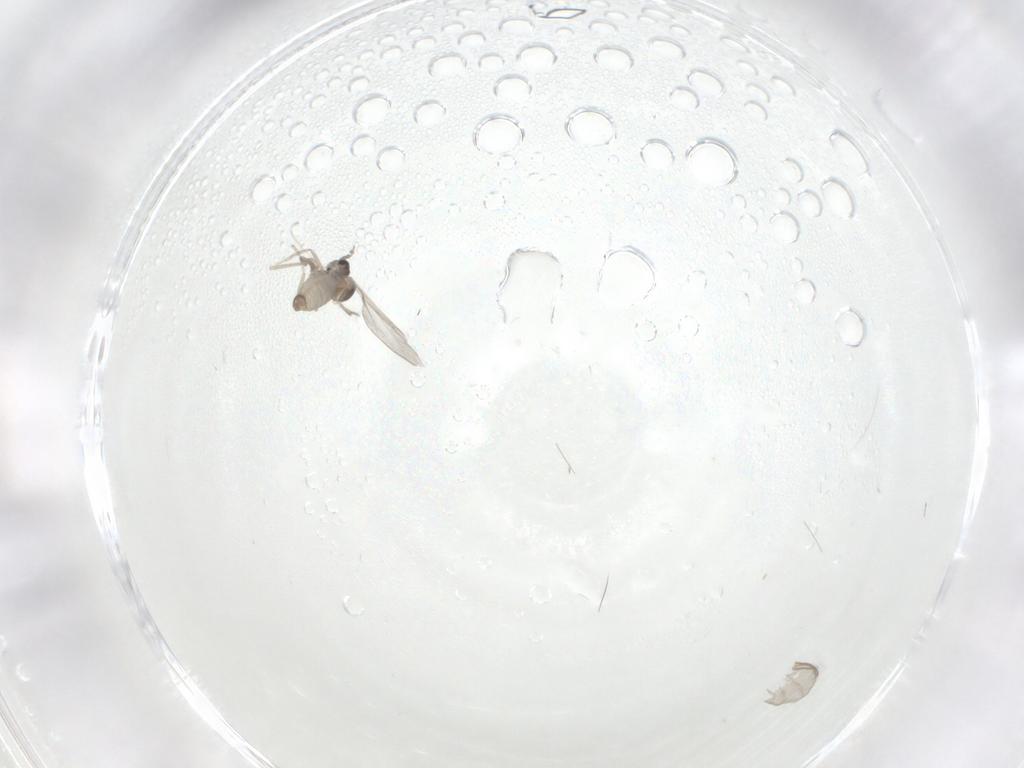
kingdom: Animalia
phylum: Arthropoda
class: Insecta
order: Diptera
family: Cecidomyiidae
